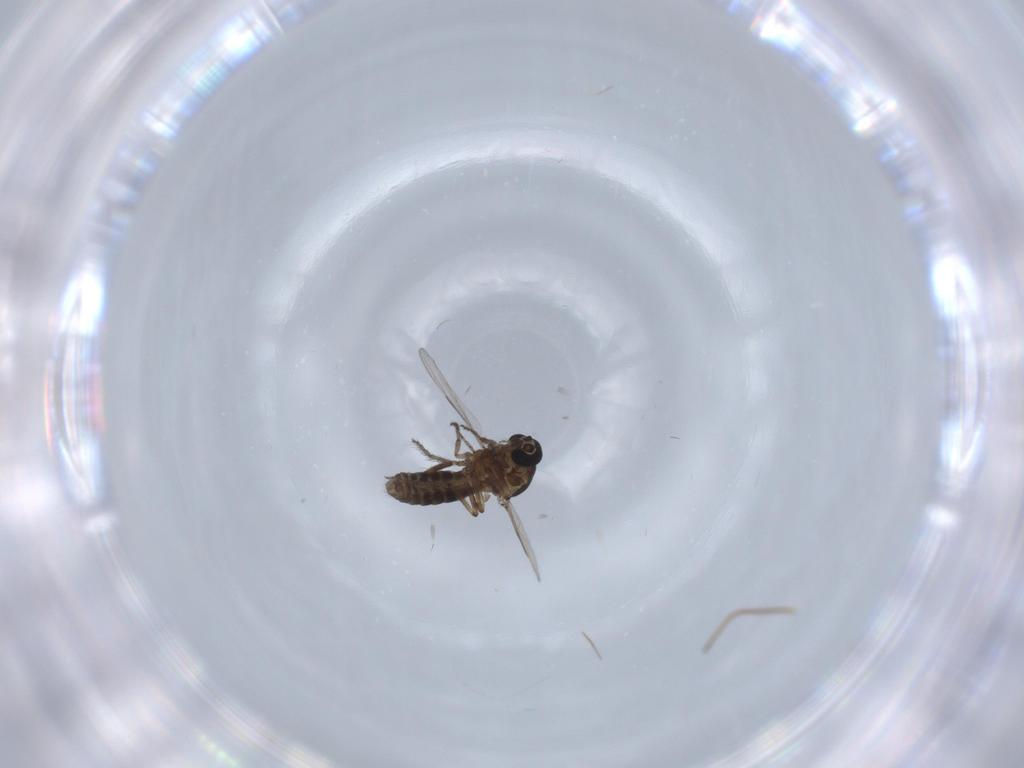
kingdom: Animalia
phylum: Arthropoda
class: Insecta
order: Diptera
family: Ceratopogonidae
